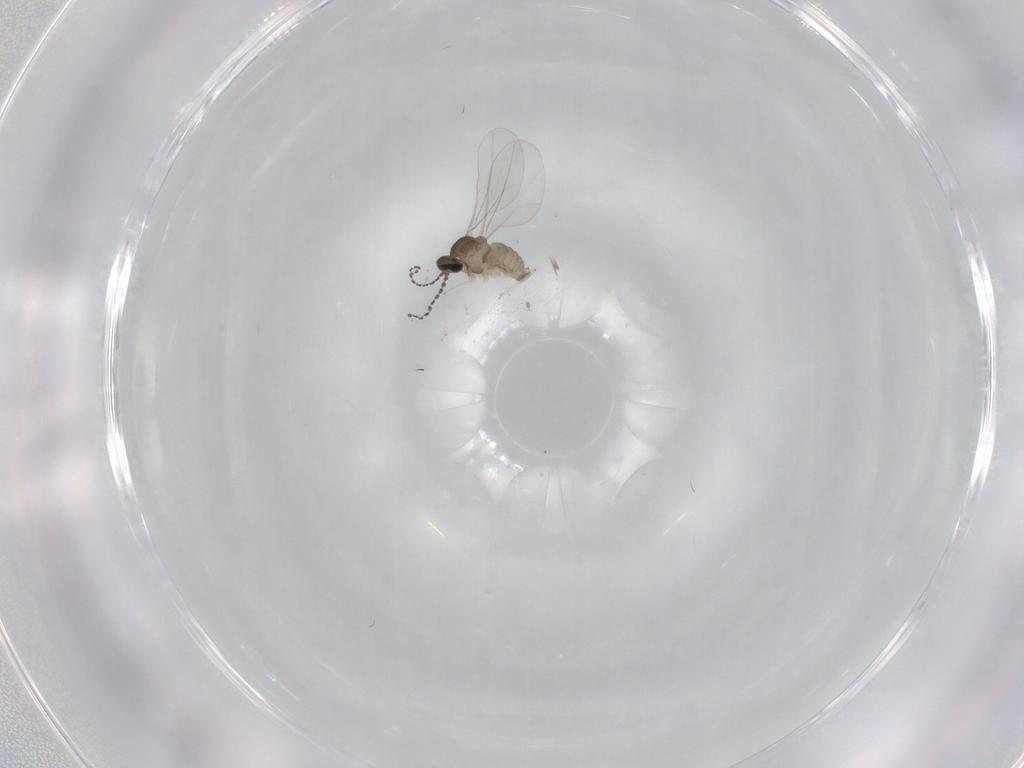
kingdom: Animalia
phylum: Arthropoda
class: Insecta
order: Diptera
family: Cecidomyiidae
